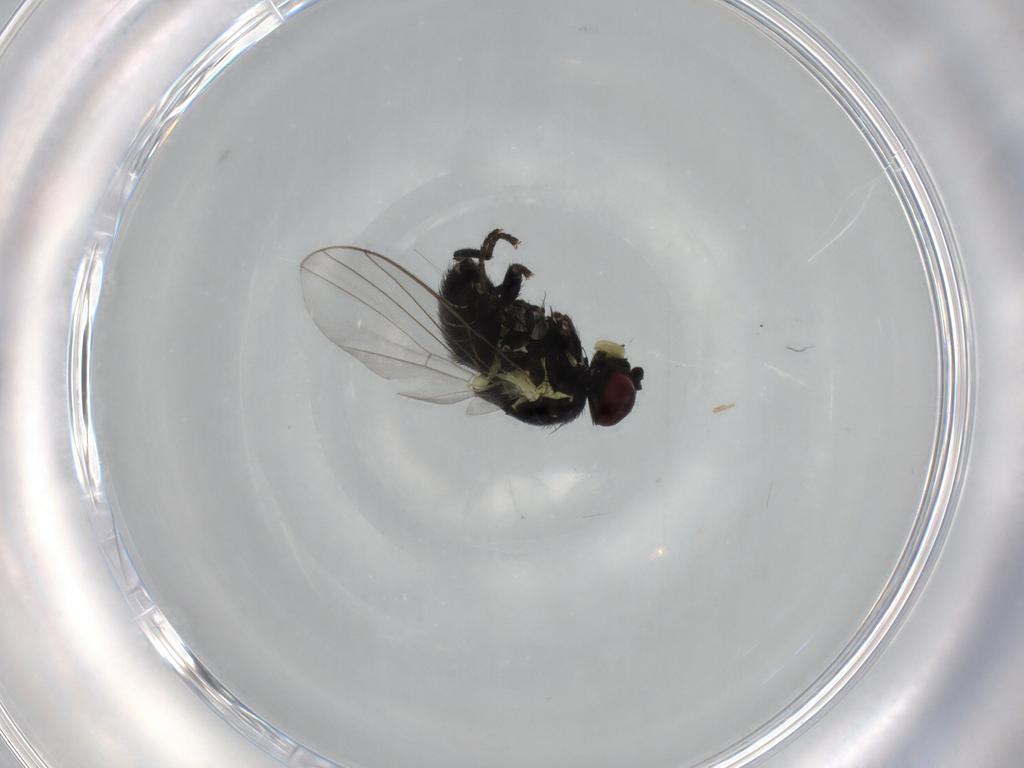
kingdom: Animalia
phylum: Arthropoda
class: Insecta
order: Diptera
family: Agromyzidae
